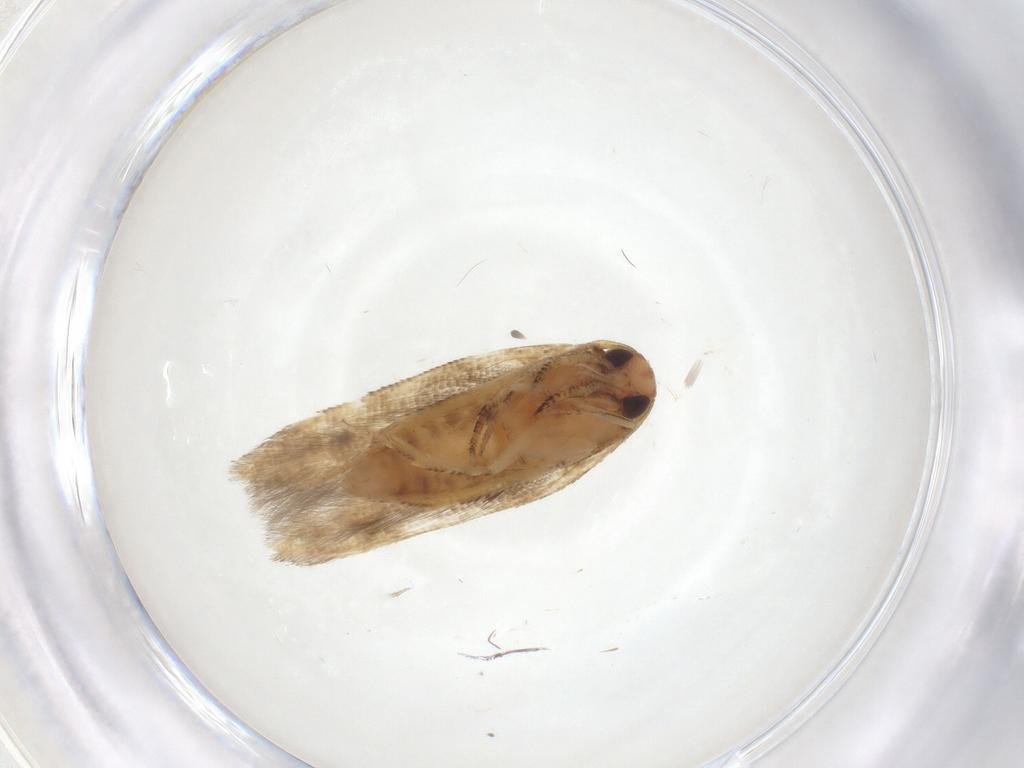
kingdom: Animalia
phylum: Arthropoda
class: Insecta
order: Lepidoptera
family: Gelechiidae
